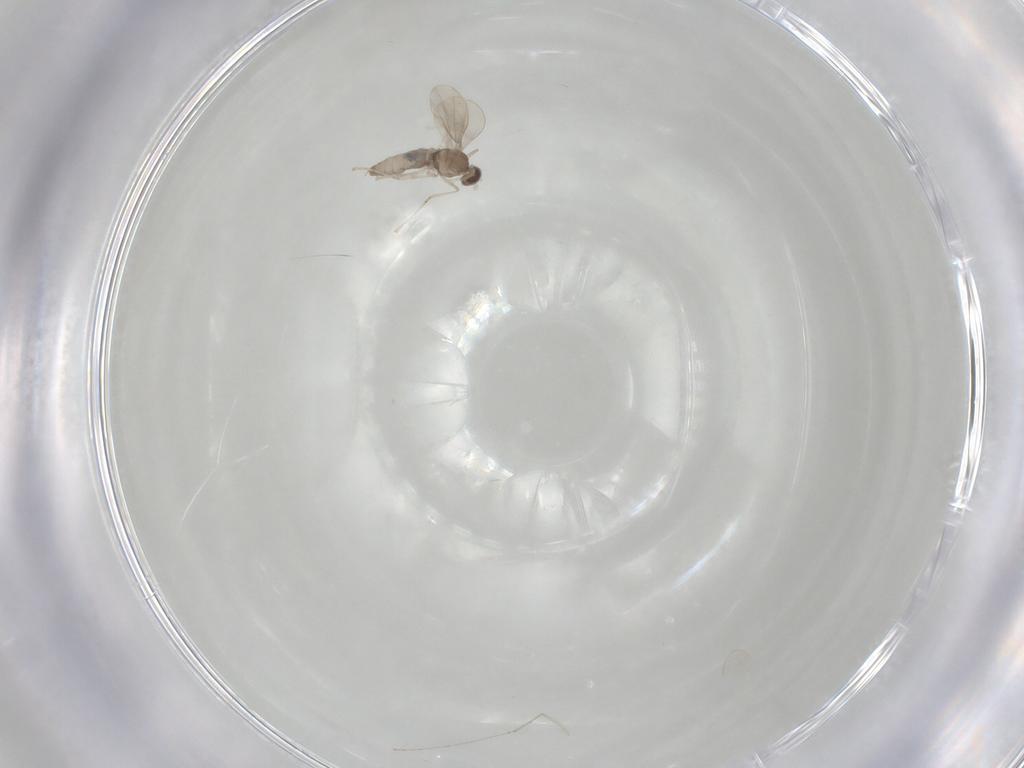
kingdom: Animalia
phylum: Arthropoda
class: Insecta
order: Diptera
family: Cecidomyiidae
